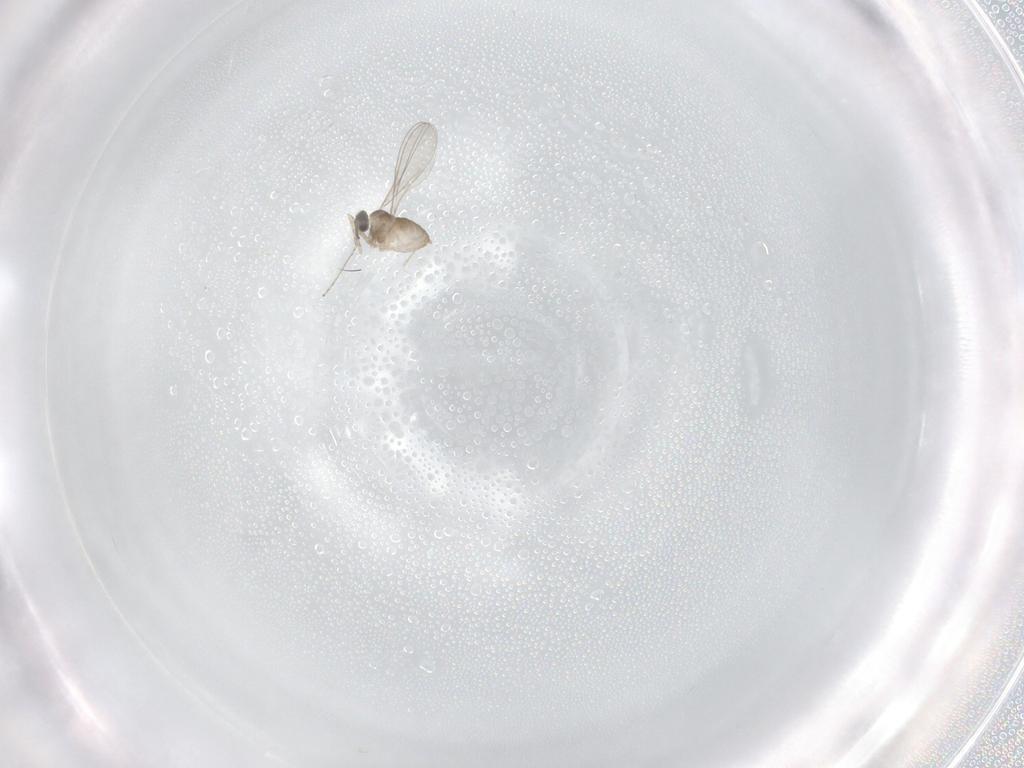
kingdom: Animalia
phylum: Arthropoda
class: Insecta
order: Diptera
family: Cecidomyiidae
